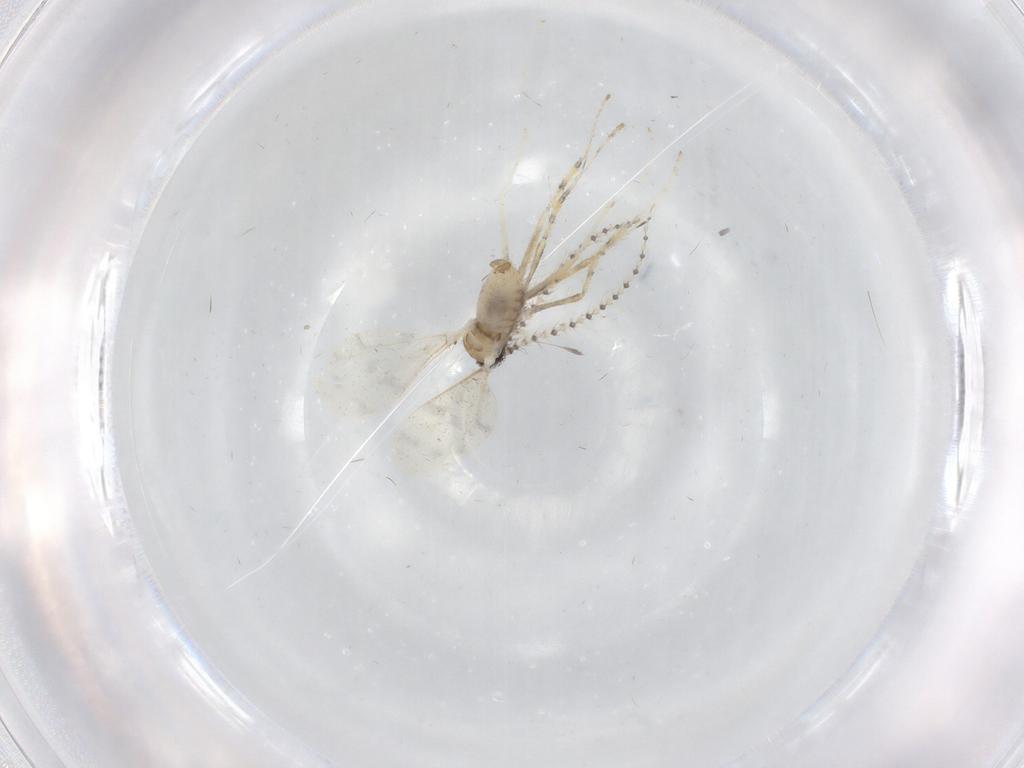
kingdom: Animalia
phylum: Arthropoda
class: Insecta
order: Diptera
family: Cecidomyiidae
